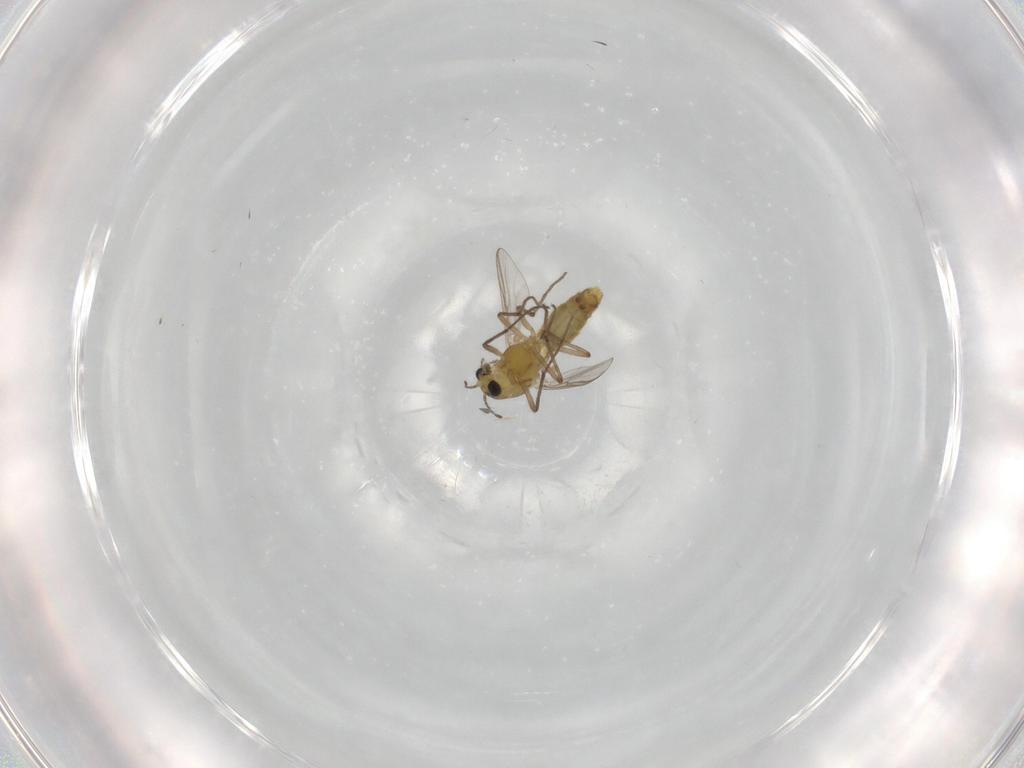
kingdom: Animalia
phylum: Arthropoda
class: Insecta
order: Diptera
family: Chironomidae
